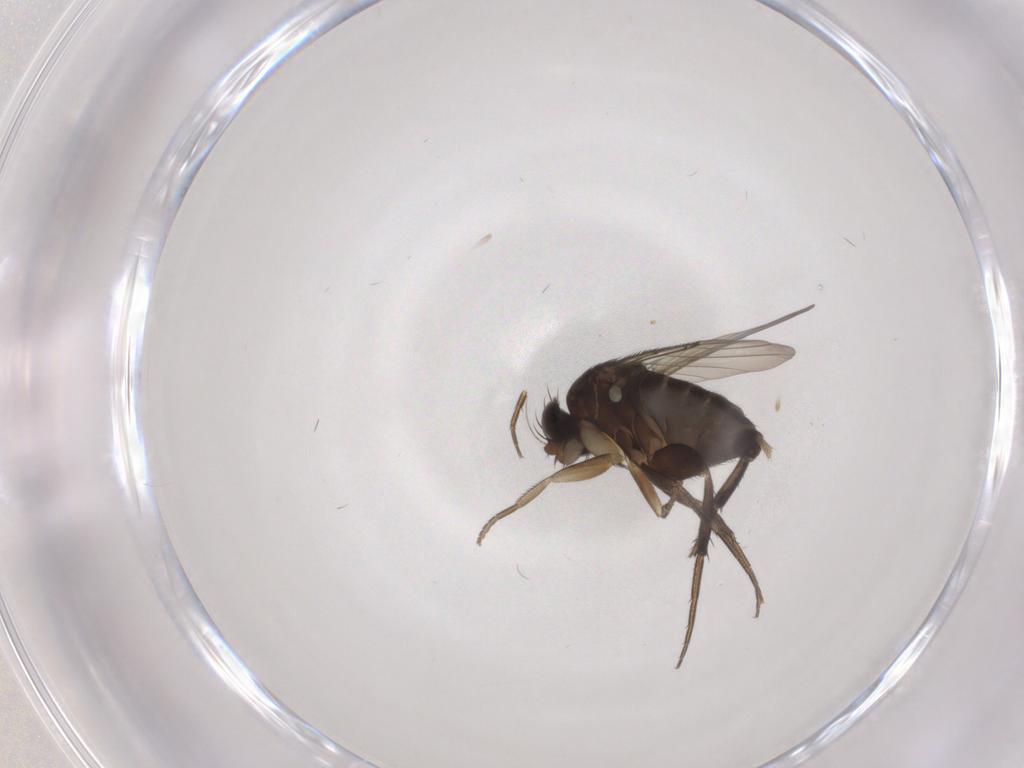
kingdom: Animalia
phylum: Arthropoda
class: Insecta
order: Diptera
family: Phoridae
